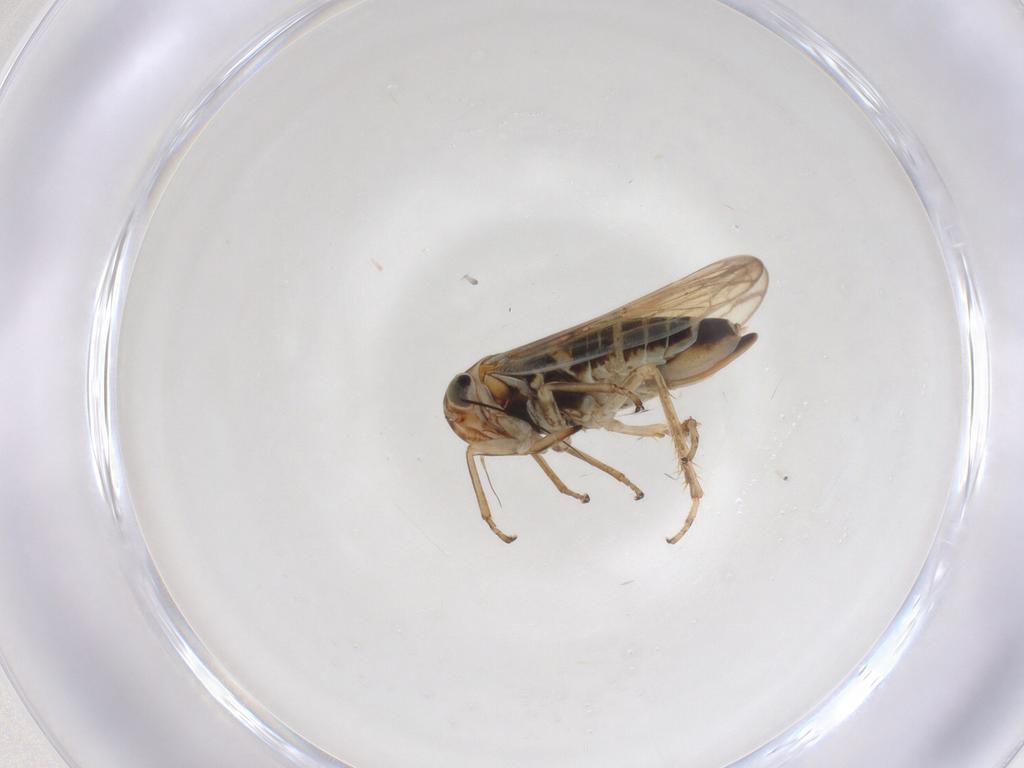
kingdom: Animalia
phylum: Arthropoda
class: Insecta
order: Hemiptera
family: Cicadellidae
